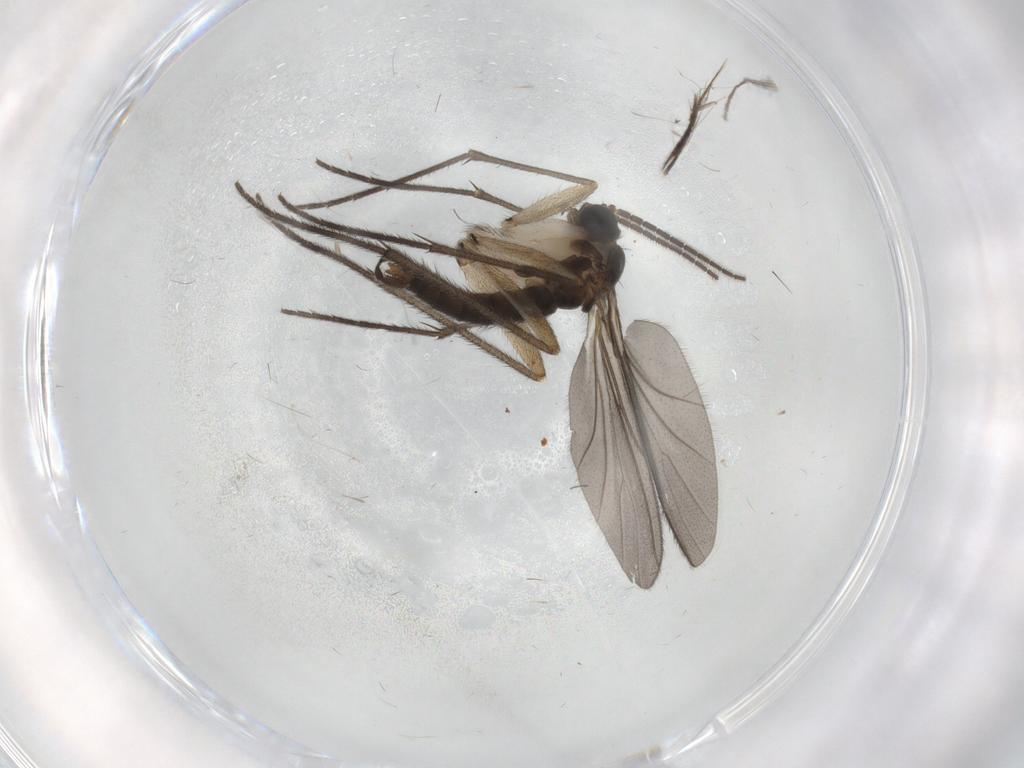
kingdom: Animalia
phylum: Arthropoda
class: Insecta
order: Diptera
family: Sciaridae
